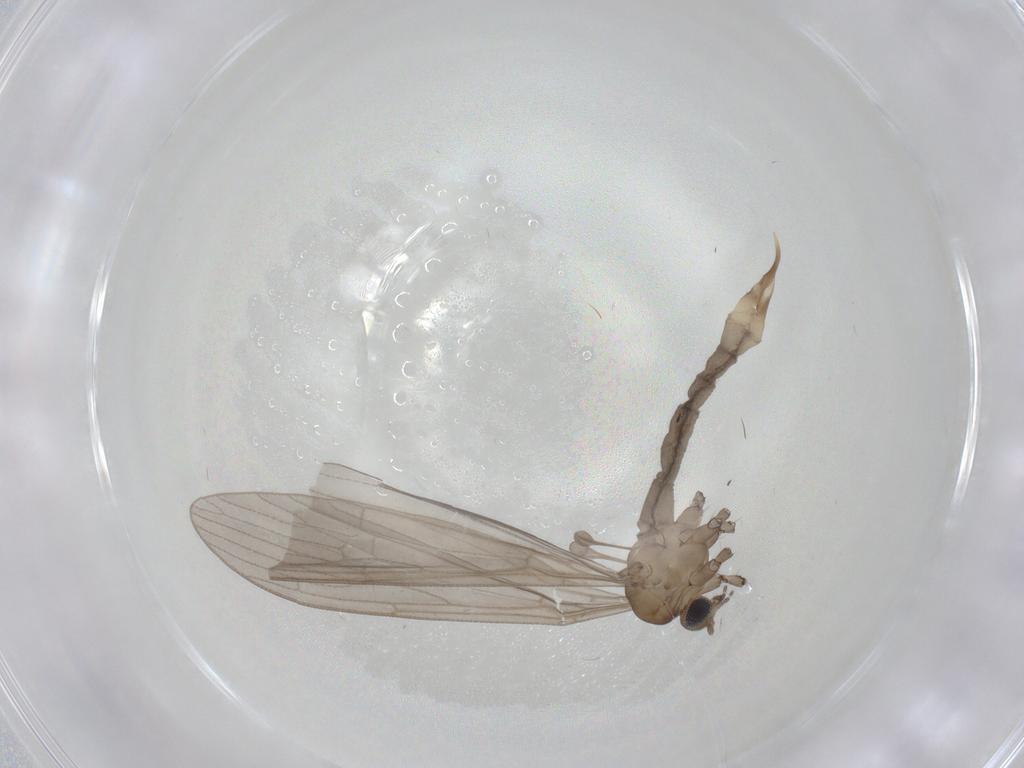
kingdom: Animalia
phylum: Arthropoda
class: Insecta
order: Diptera
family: Limoniidae
